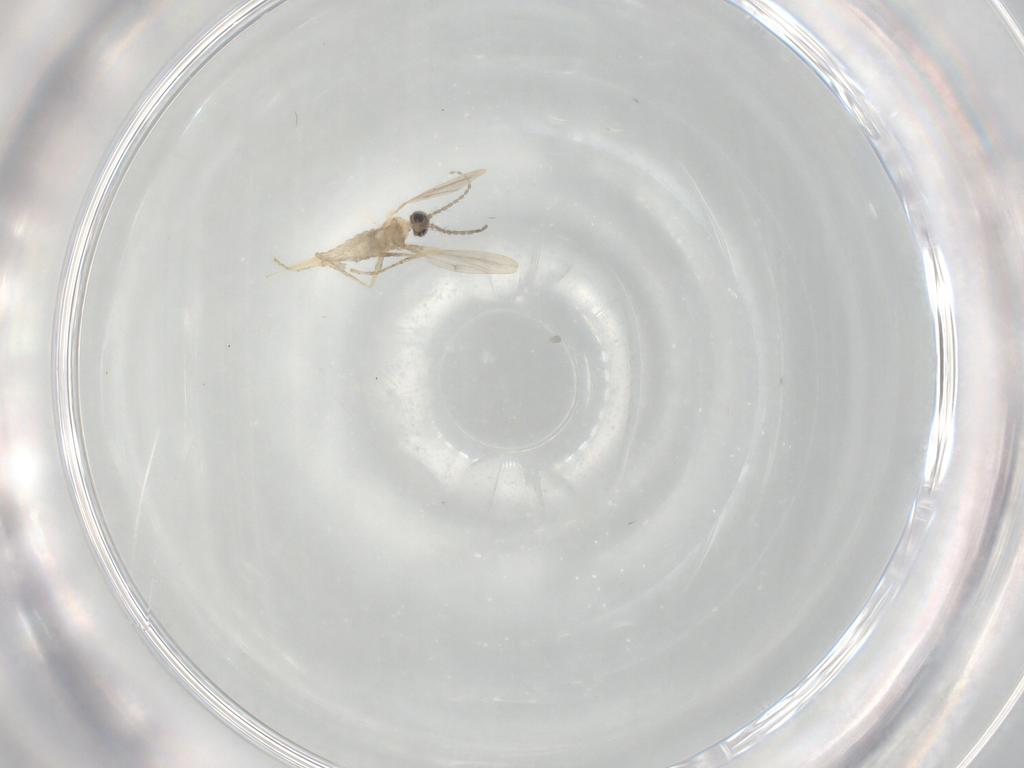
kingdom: Animalia
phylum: Arthropoda
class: Insecta
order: Diptera
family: Cecidomyiidae
